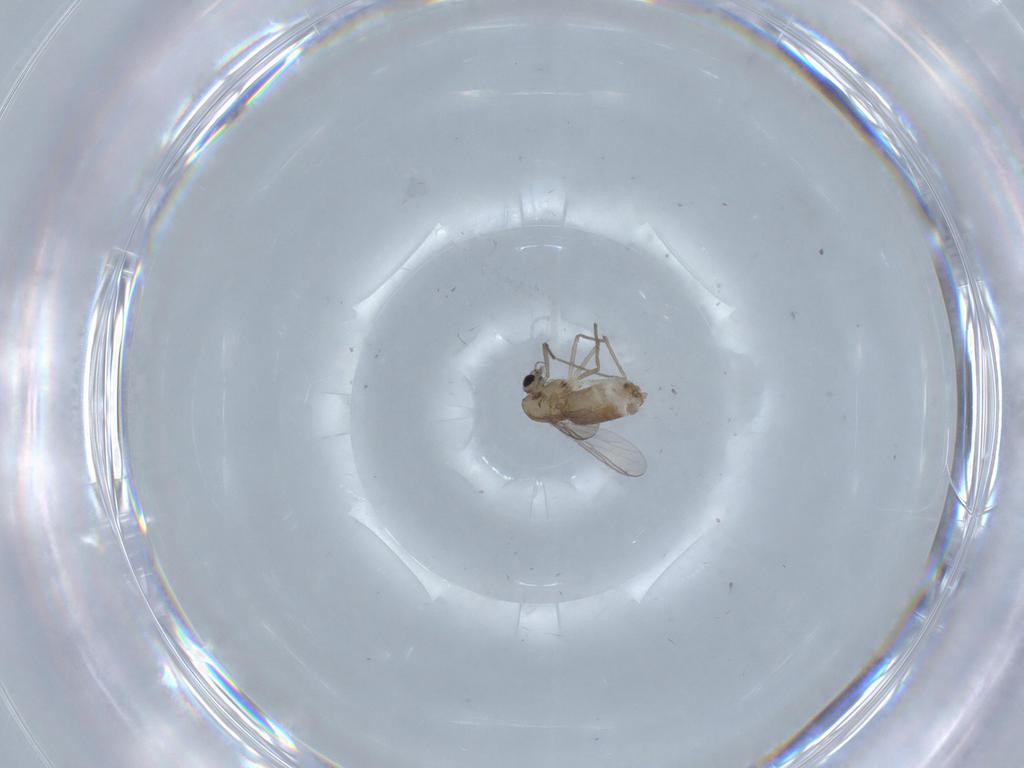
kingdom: Animalia
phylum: Arthropoda
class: Insecta
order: Diptera
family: Chironomidae
